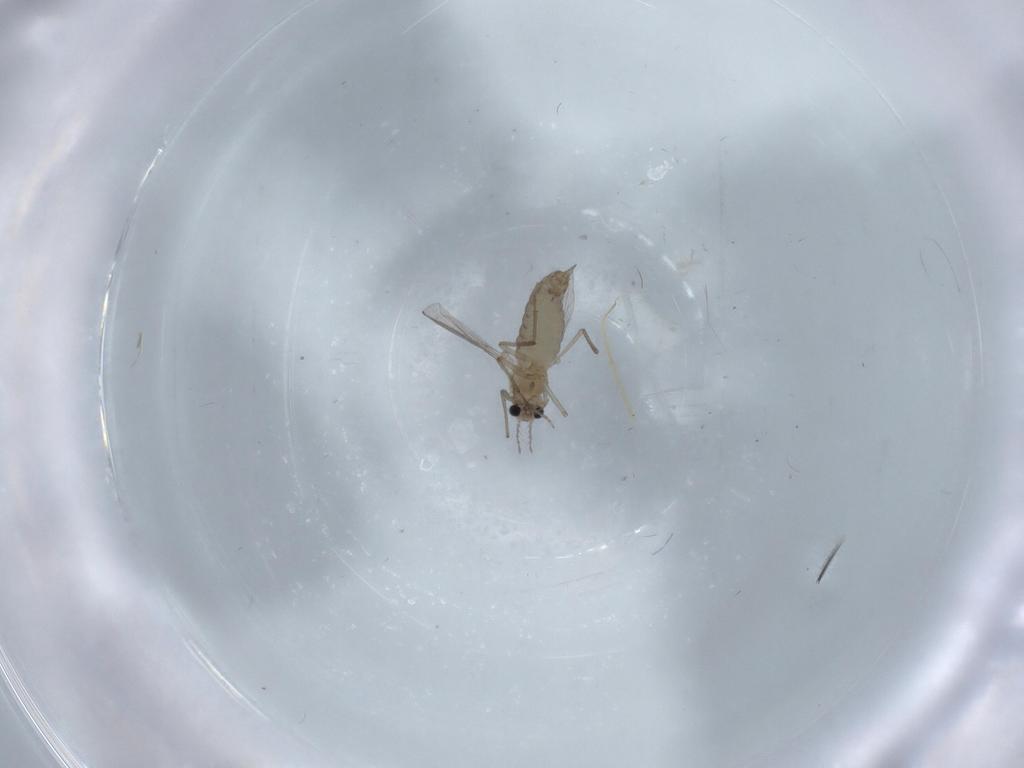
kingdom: Animalia
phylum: Arthropoda
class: Insecta
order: Diptera
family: Chironomidae
